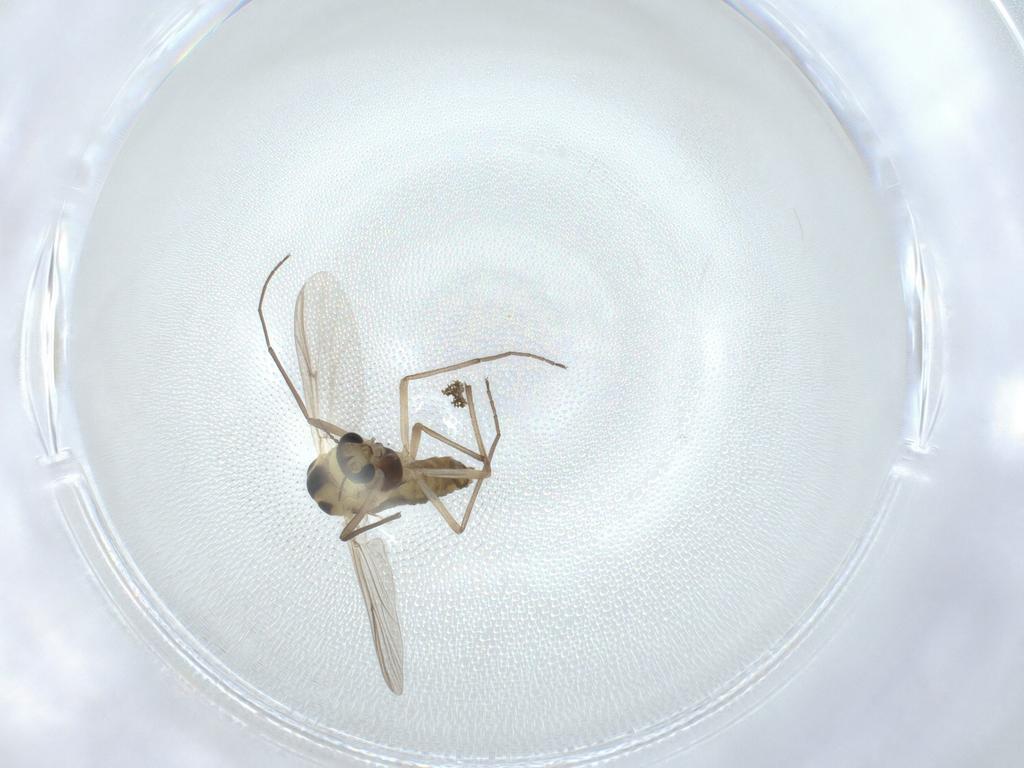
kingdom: Animalia
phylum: Arthropoda
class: Insecta
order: Diptera
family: Chironomidae
